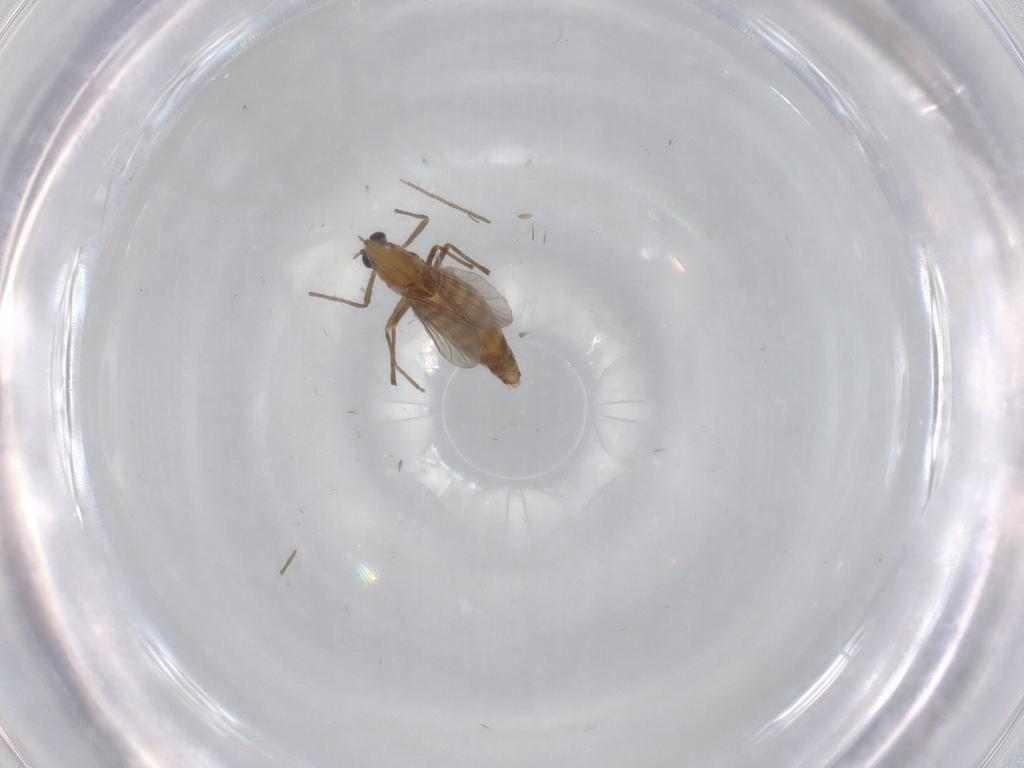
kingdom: Animalia
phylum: Arthropoda
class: Insecta
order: Diptera
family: Chironomidae
